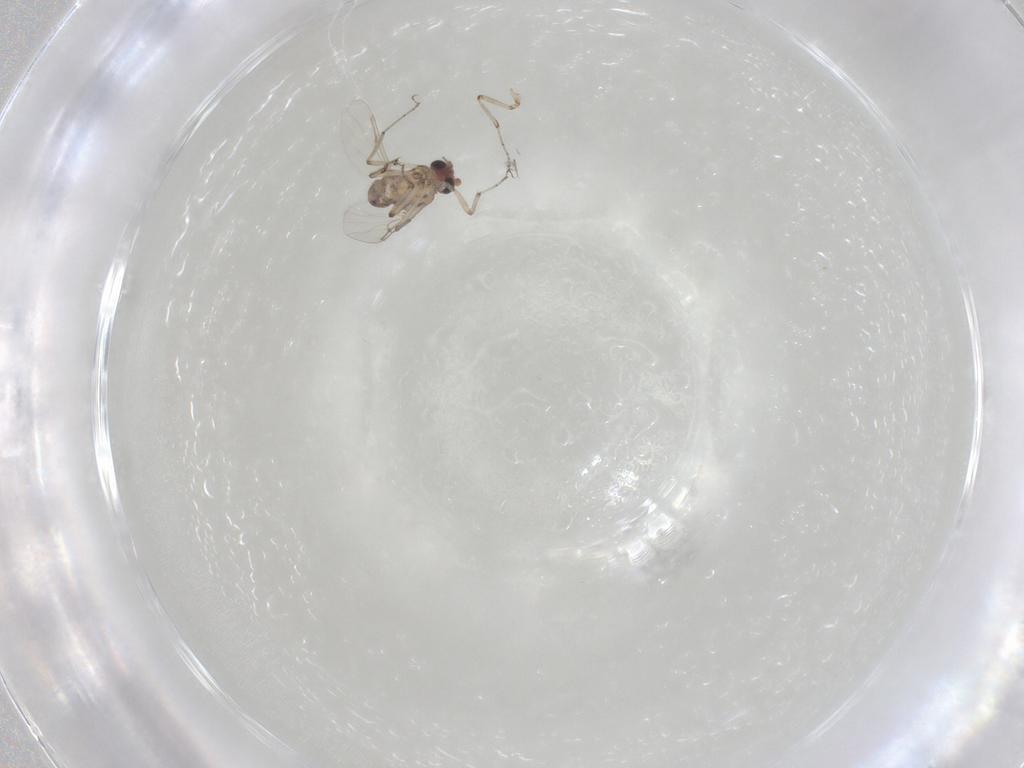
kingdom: Animalia
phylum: Arthropoda
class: Insecta
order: Diptera
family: Ceratopogonidae
